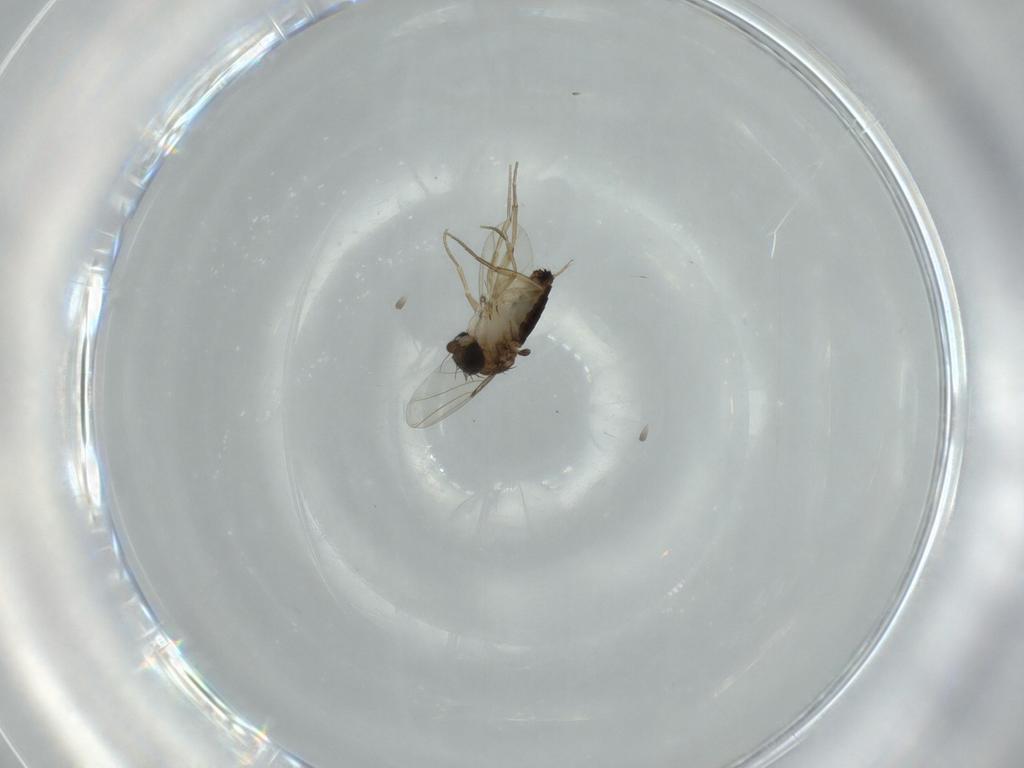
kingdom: Animalia
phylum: Arthropoda
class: Insecta
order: Diptera
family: Phoridae
